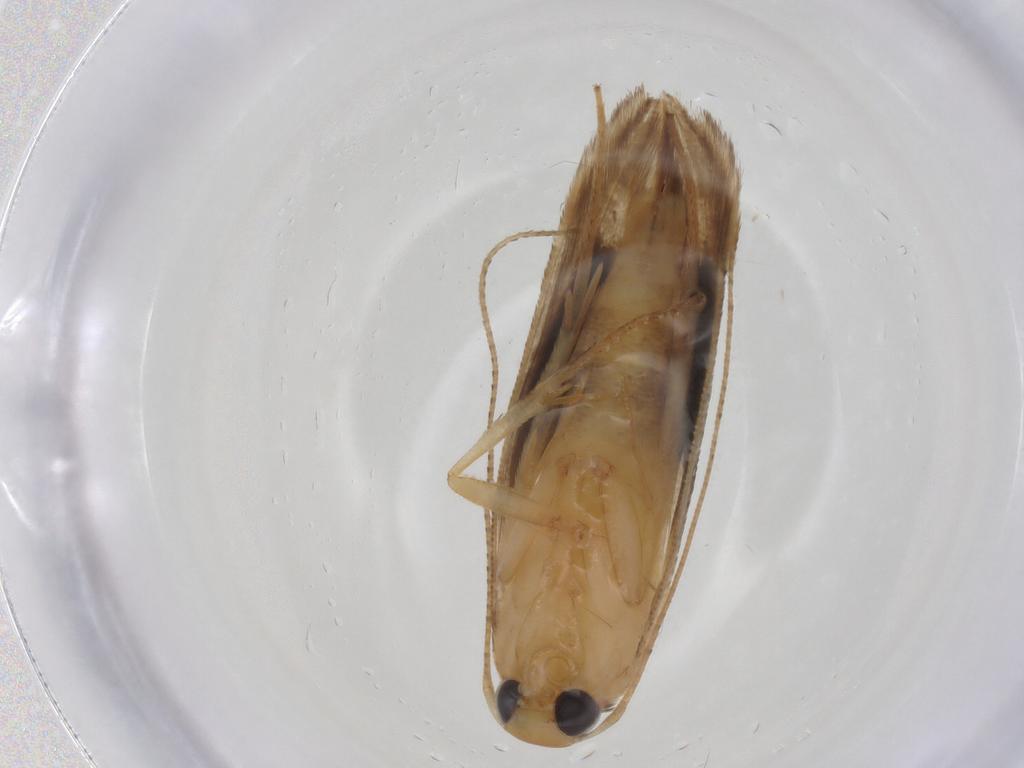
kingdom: Animalia
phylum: Arthropoda
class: Insecta
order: Lepidoptera
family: Momphidae
